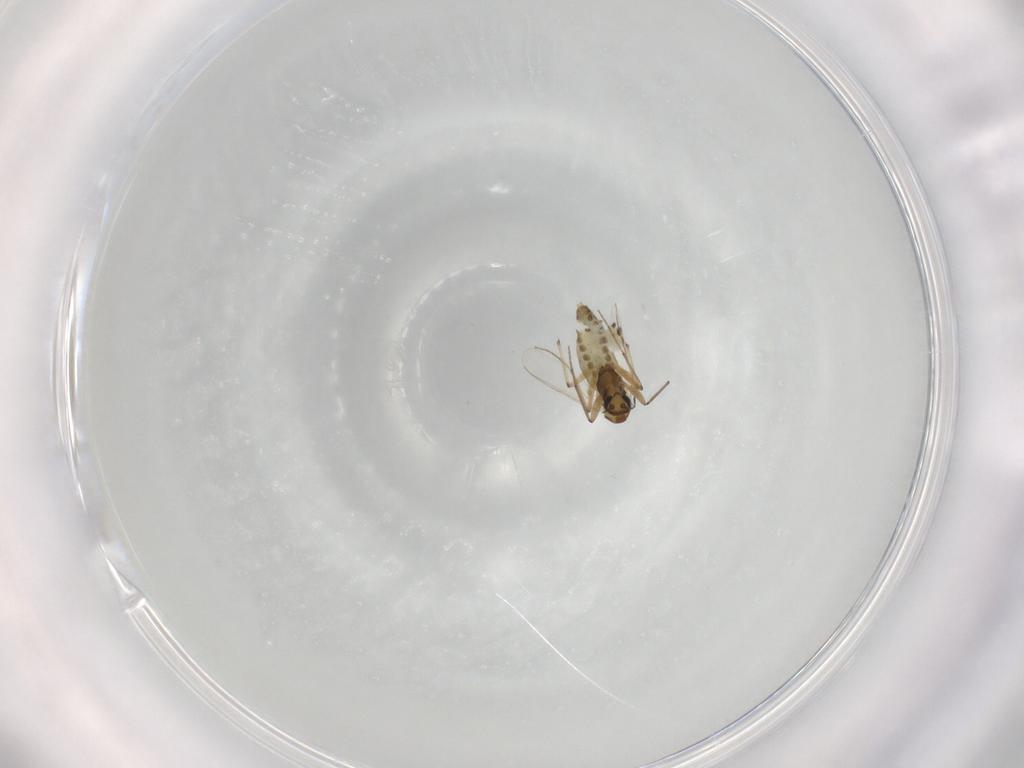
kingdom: Animalia
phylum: Arthropoda
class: Insecta
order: Diptera
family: Chironomidae
